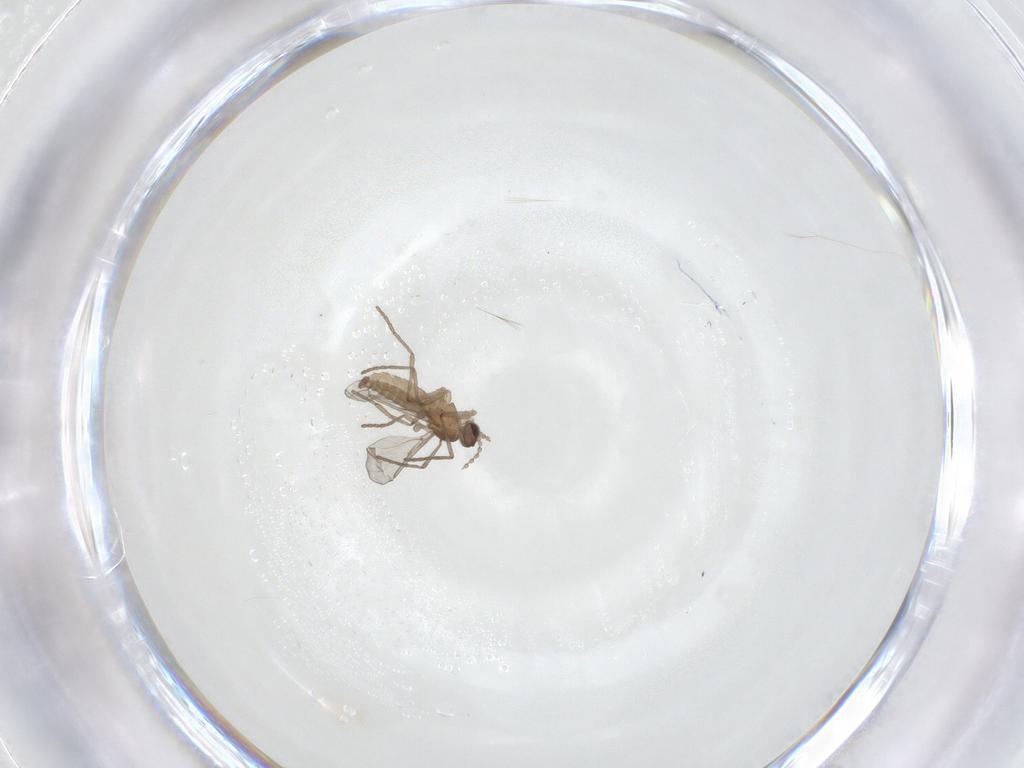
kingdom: Animalia
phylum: Arthropoda
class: Insecta
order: Diptera
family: Cecidomyiidae
